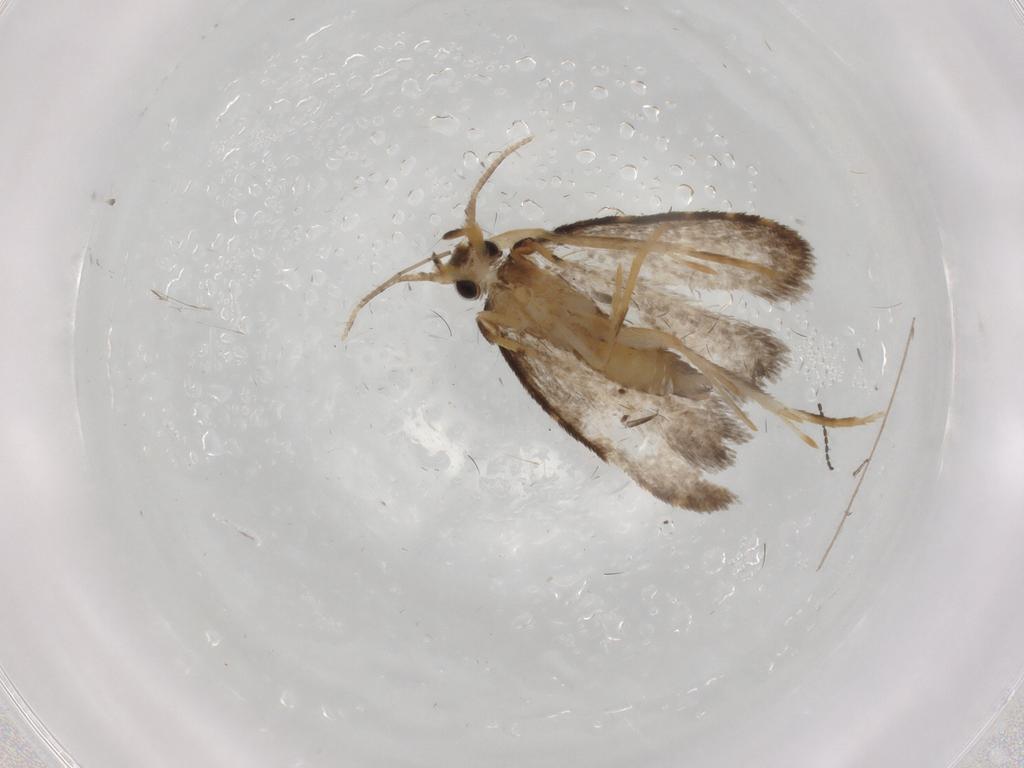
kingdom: Animalia
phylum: Arthropoda
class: Insecta
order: Lepidoptera
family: Psychidae
